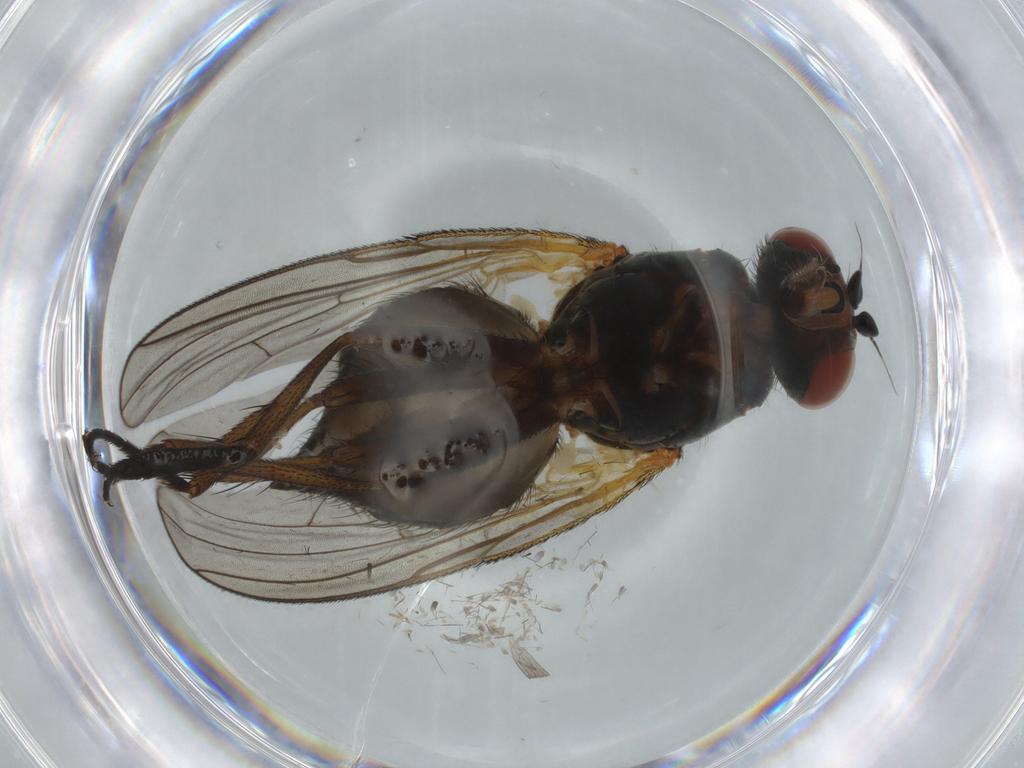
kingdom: Animalia
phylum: Arthropoda
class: Insecta
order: Diptera
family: Anthomyiidae
